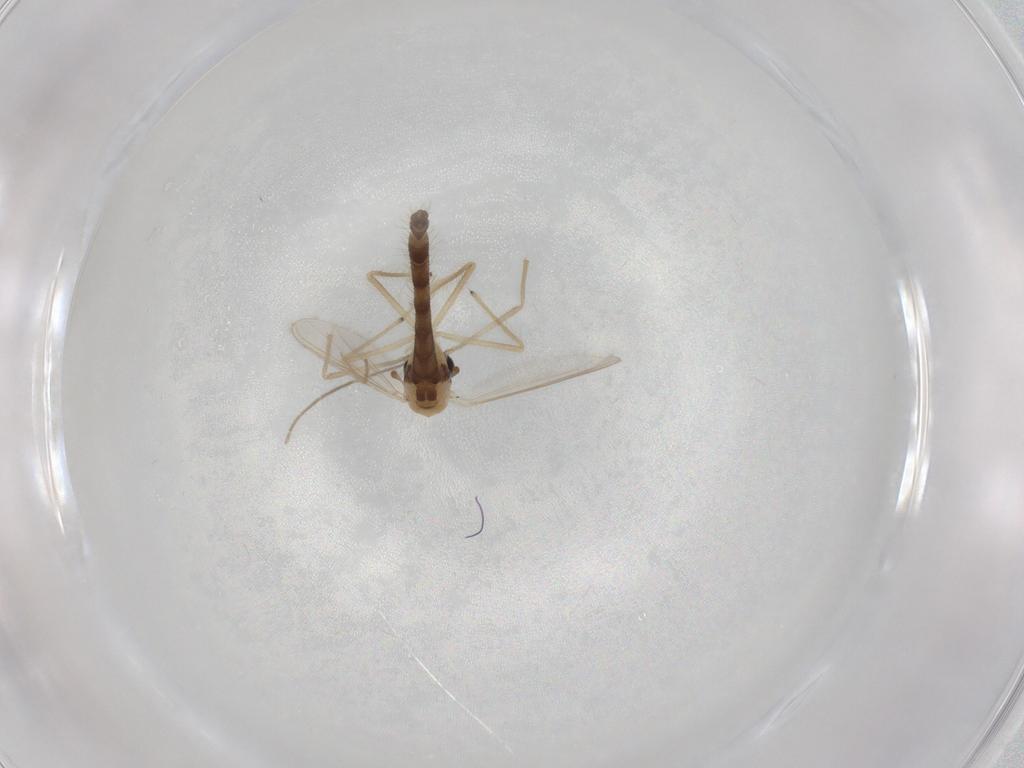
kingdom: Animalia
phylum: Arthropoda
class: Insecta
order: Diptera
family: Chironomidae
